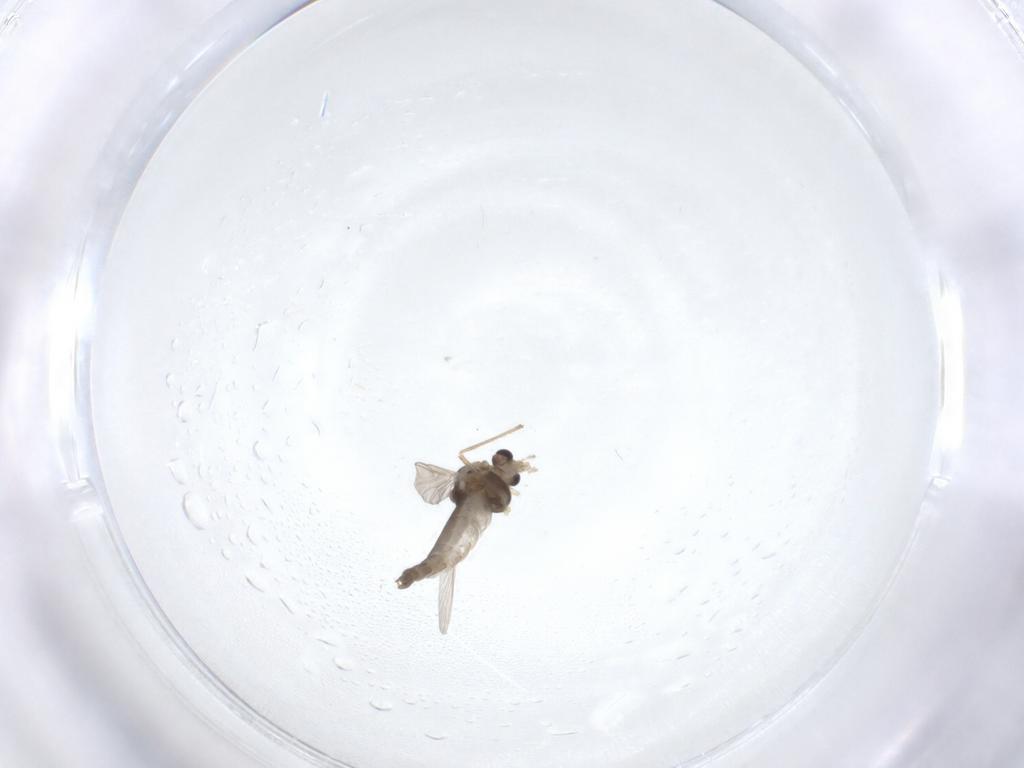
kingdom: Animalia
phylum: Arthropoda
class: Insecta
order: Diptera
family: Chironomidae
